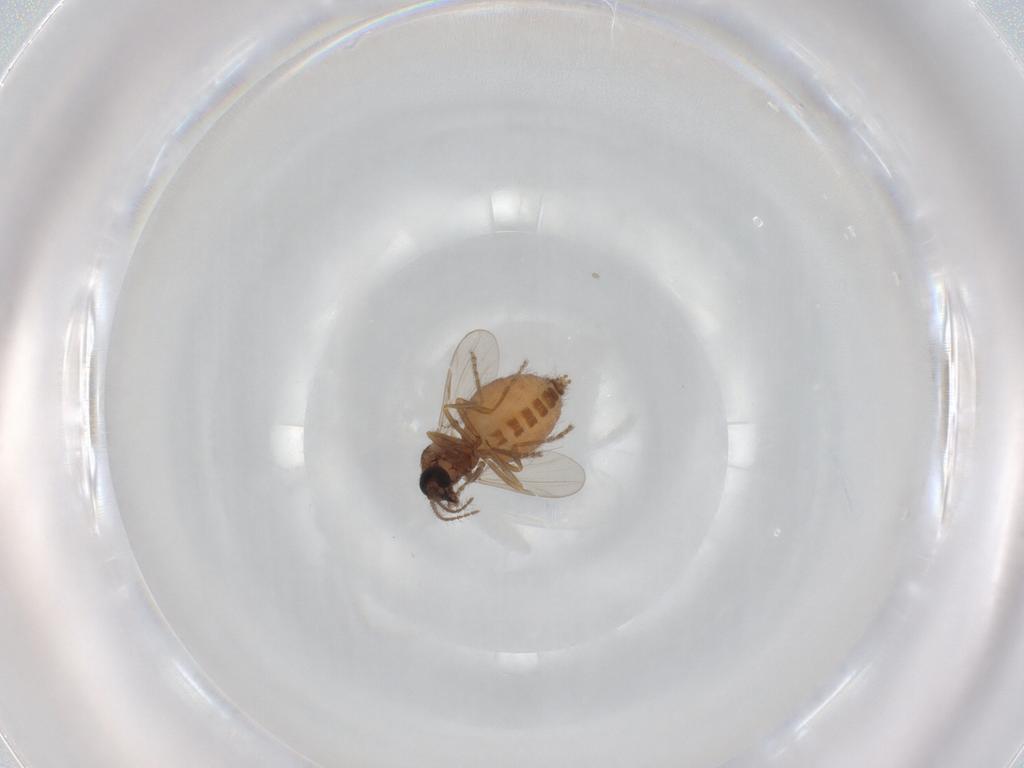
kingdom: Animalia
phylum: Arthropoda
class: Insecta
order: Diptera
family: Ceratopogonidae
